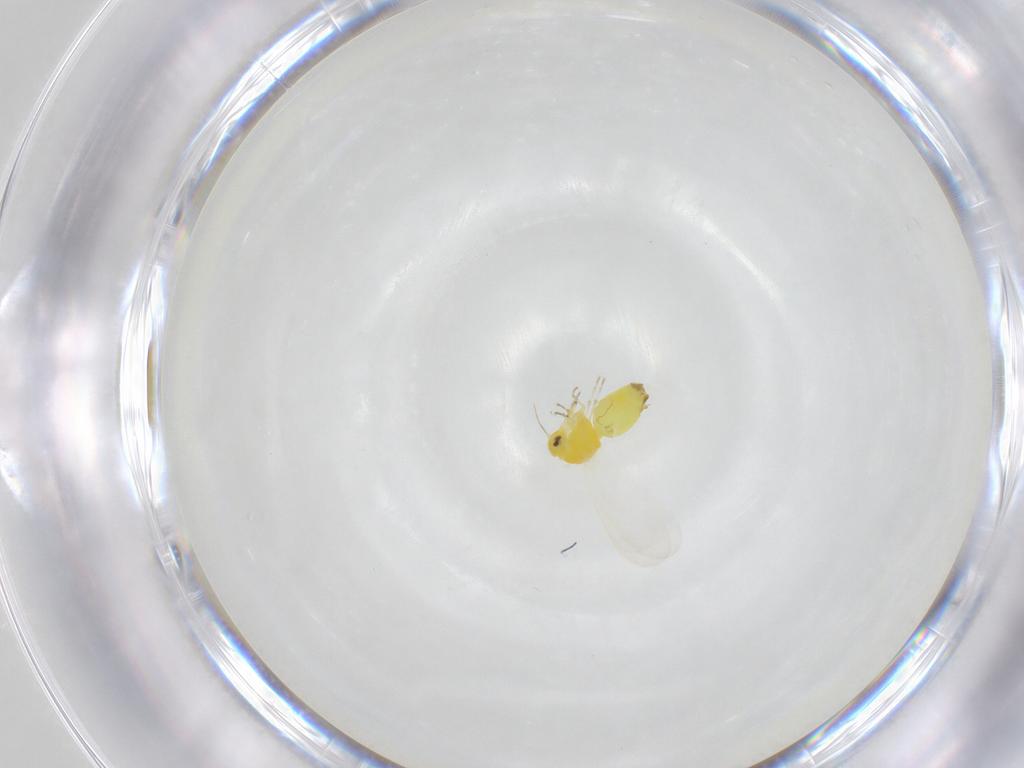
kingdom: Animalia
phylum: Arthropoda
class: Insecta
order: Hemiptera
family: Aleyrodidae
